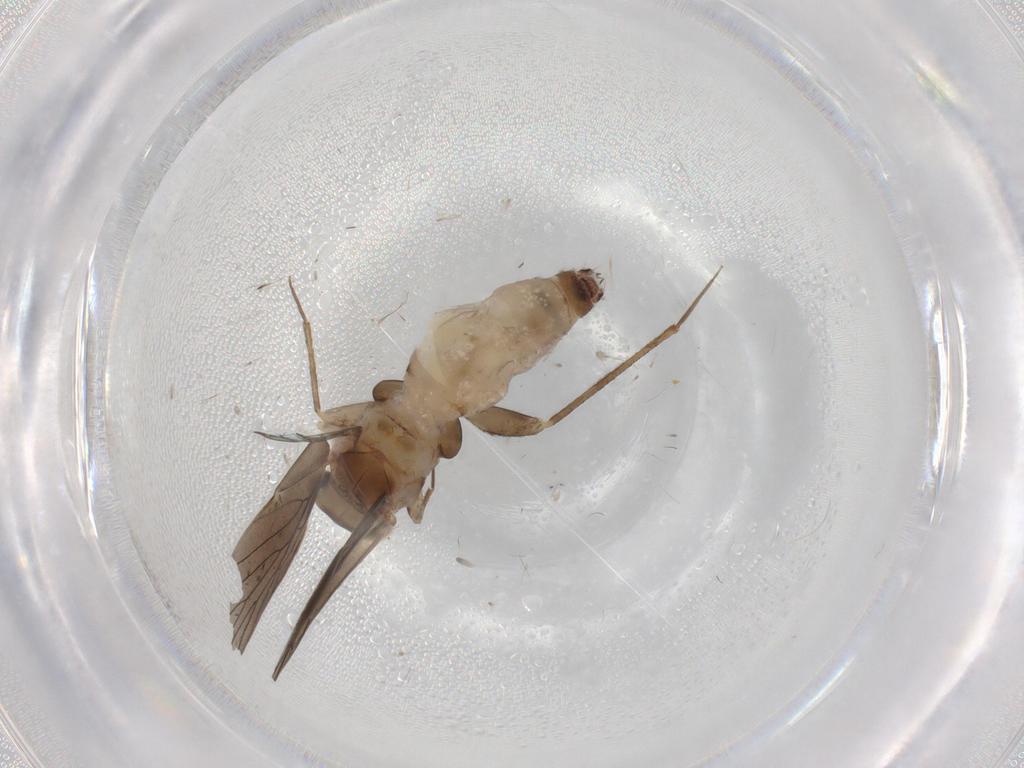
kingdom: Animalia
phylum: Arthropoda
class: Insecta
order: Psocodea
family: Lepidopsocidae
